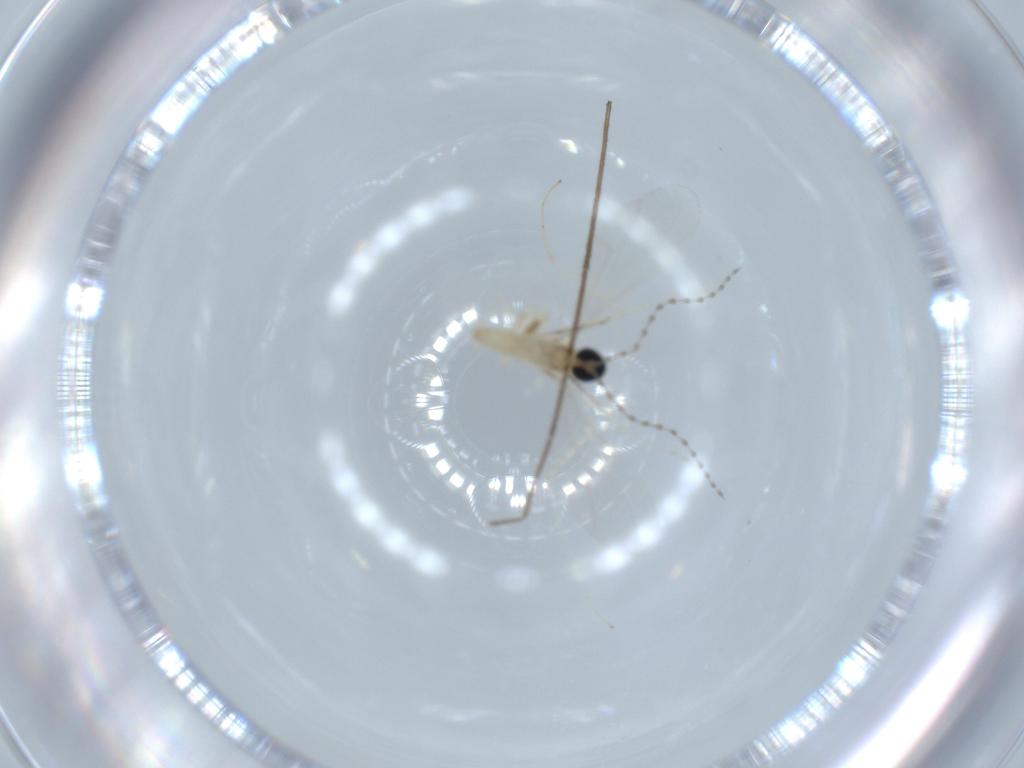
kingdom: Animalia
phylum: Arthropoda
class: Insecta
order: Diptera
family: Cecidomyiidae
